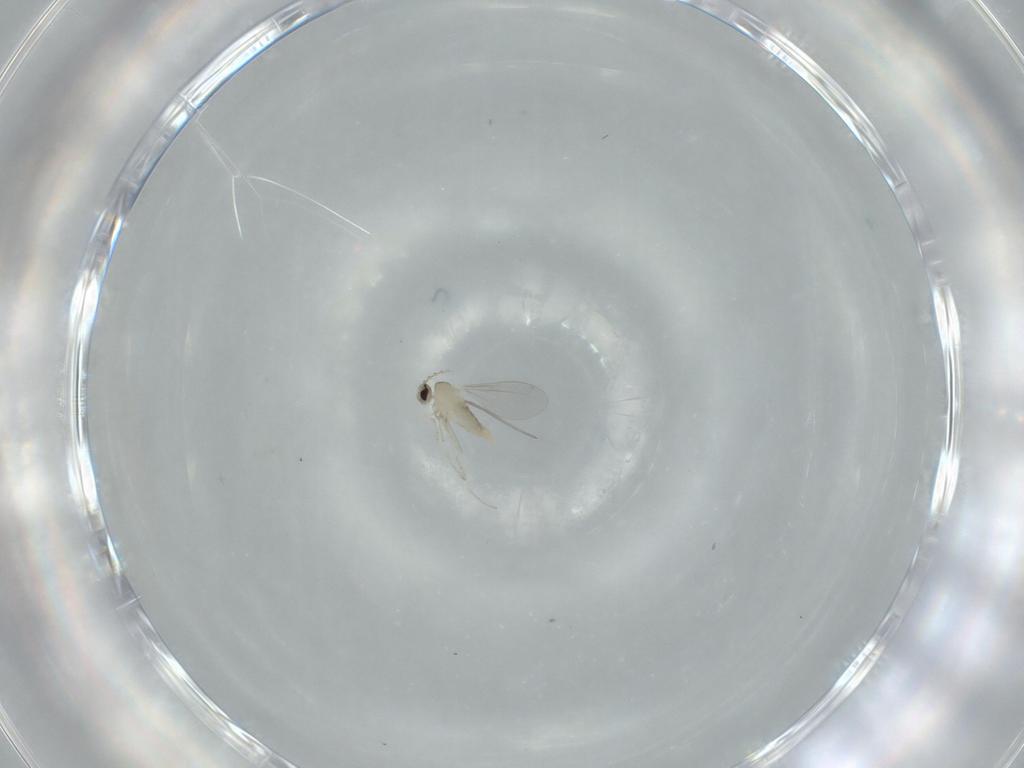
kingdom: Animalia
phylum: Arthropoda
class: Insecta
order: Diptera
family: Cecidomyiidae
